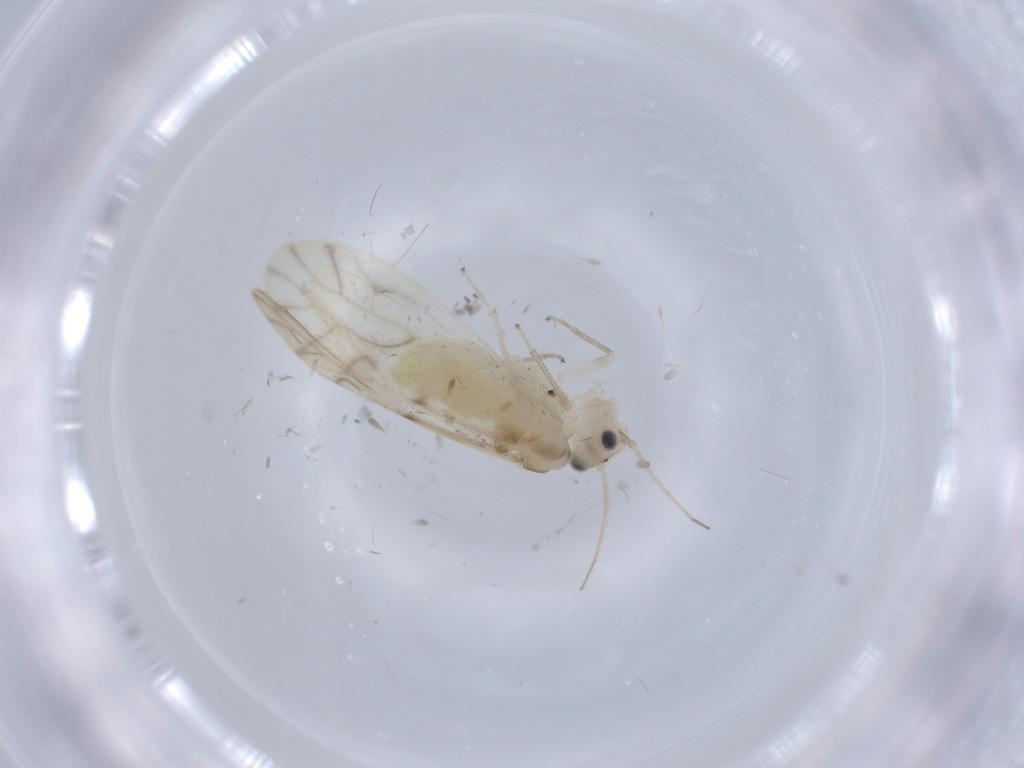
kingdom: Animalia
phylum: Arthropoda
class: Insecta
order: Psocodea
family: Caeciliusidae
